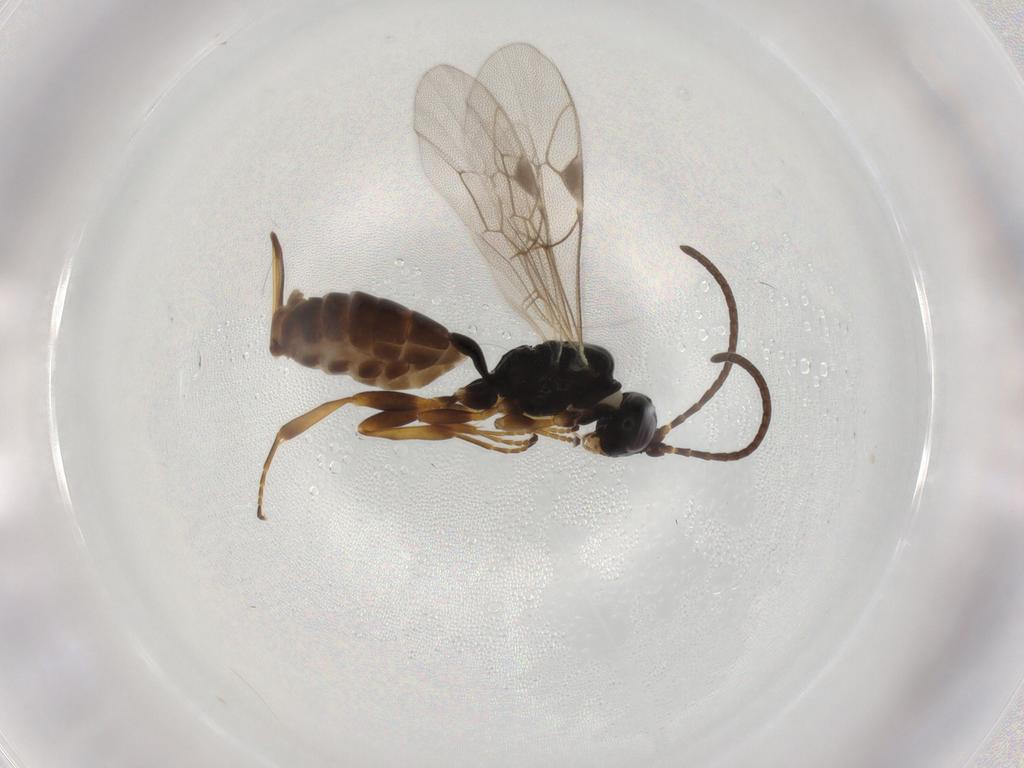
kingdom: Animalia
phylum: Arthropoda
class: Insecta
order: Hymenoptera
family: Ichneumonidae
